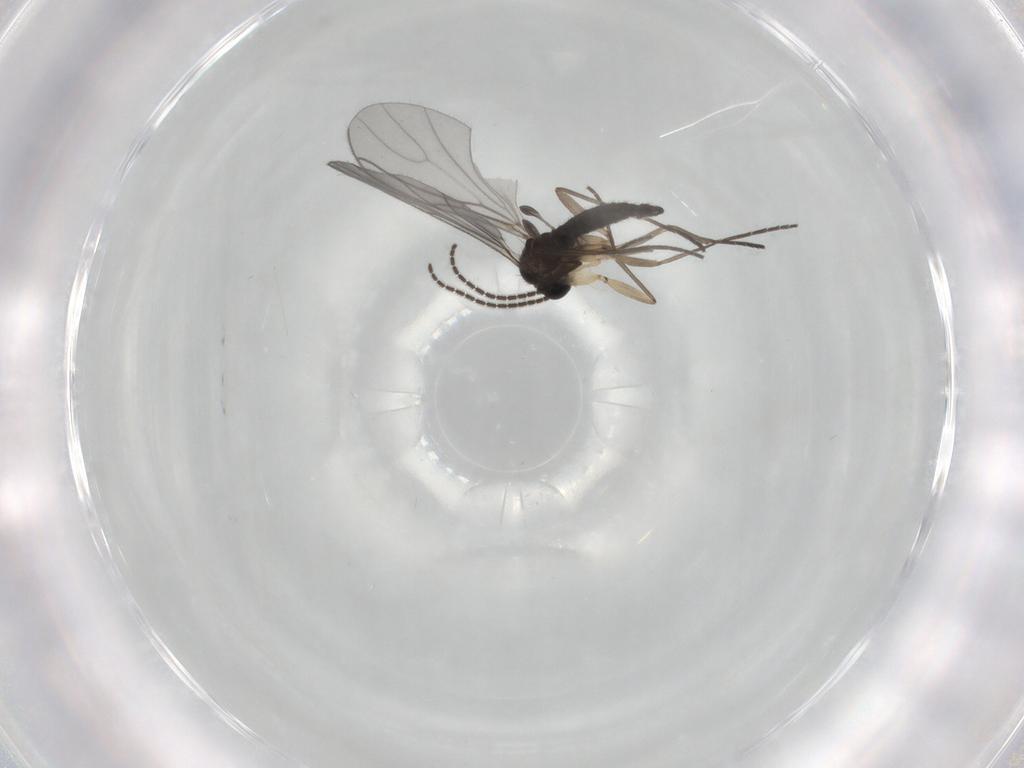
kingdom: Animalia
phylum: Arthropoda
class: Insecta
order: Diptera
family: Sciaridae
